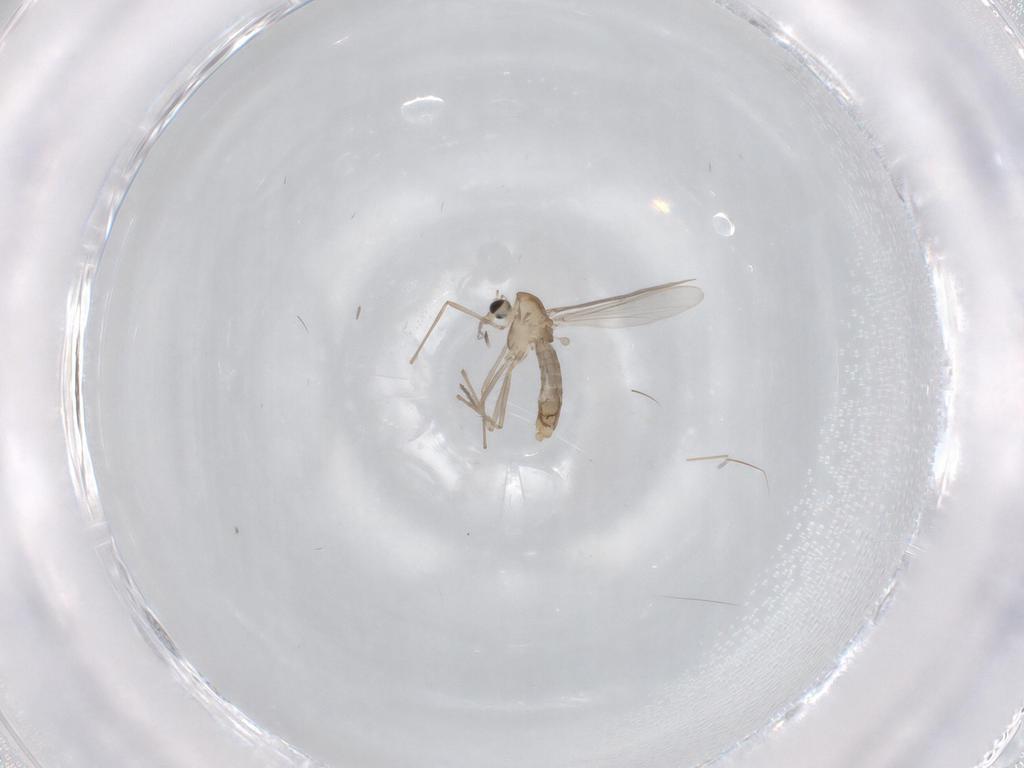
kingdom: Animalia
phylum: Arthropoda
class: Insecta
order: Diptera
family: Chironomidae
